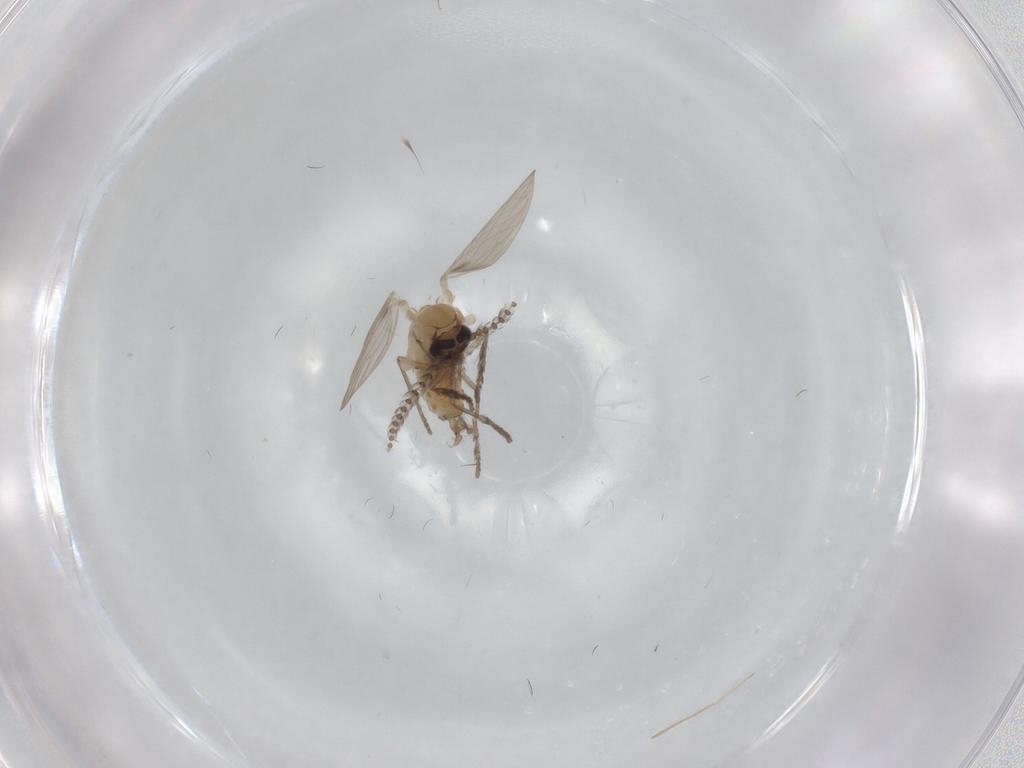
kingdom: Animalia
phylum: Arthropoda
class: Insecta
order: Diptera
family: Psychodidae
